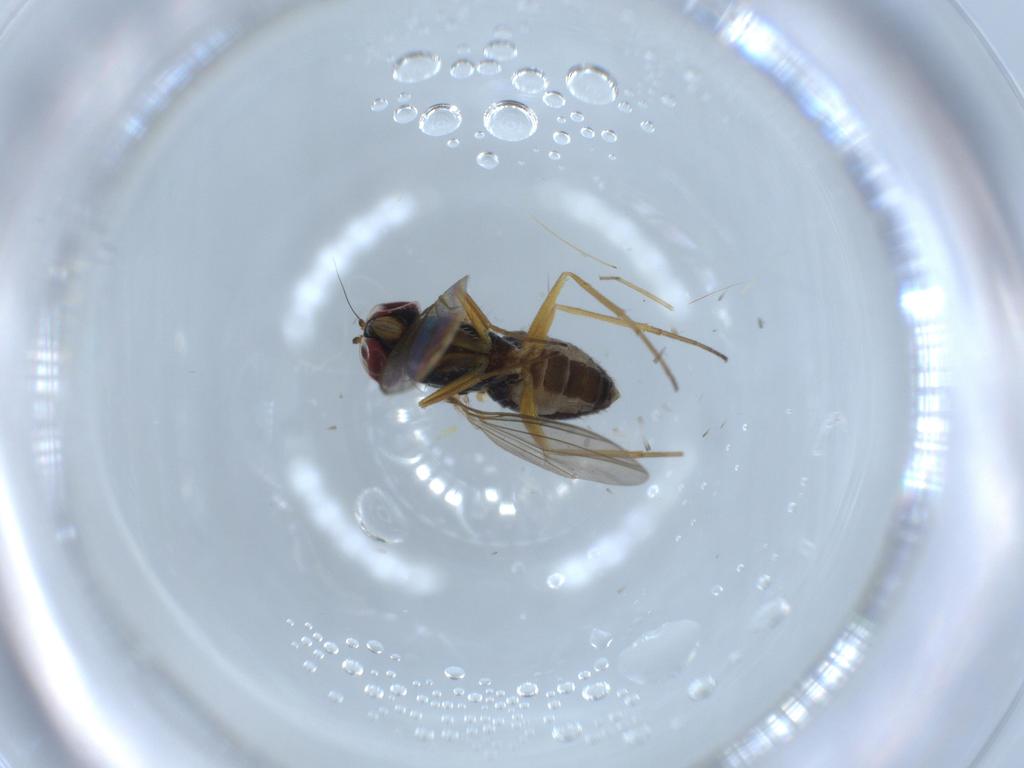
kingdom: Animalia
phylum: Arthropoda
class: Insecta
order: Diptera
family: Dolichopodidae
